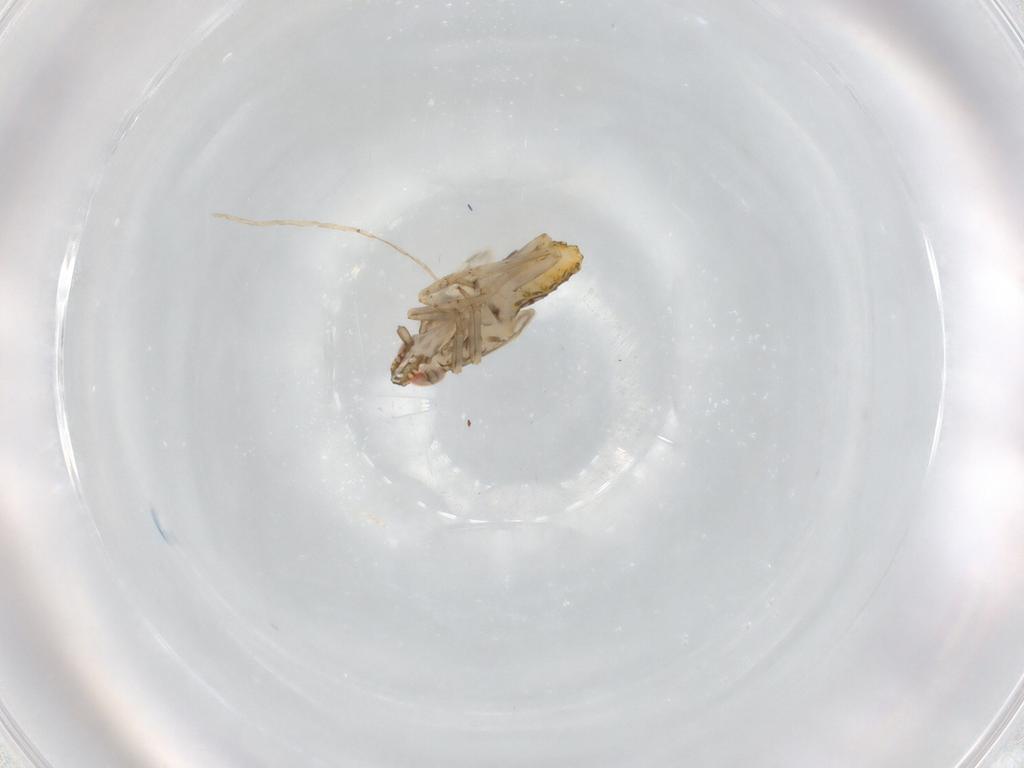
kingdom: Animalia
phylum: Arthropoda
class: Insecta
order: Hemiptera
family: Delphacidae
